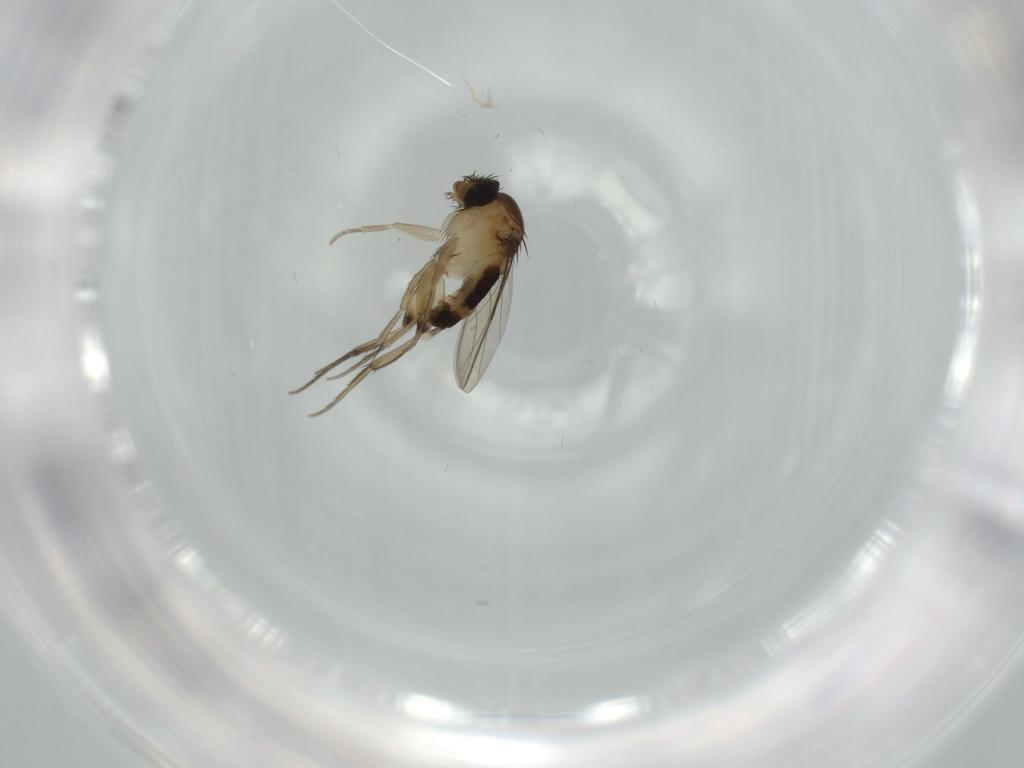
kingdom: Animalia
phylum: Arthropoda
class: Insecta
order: Diptera
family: Phoridae
